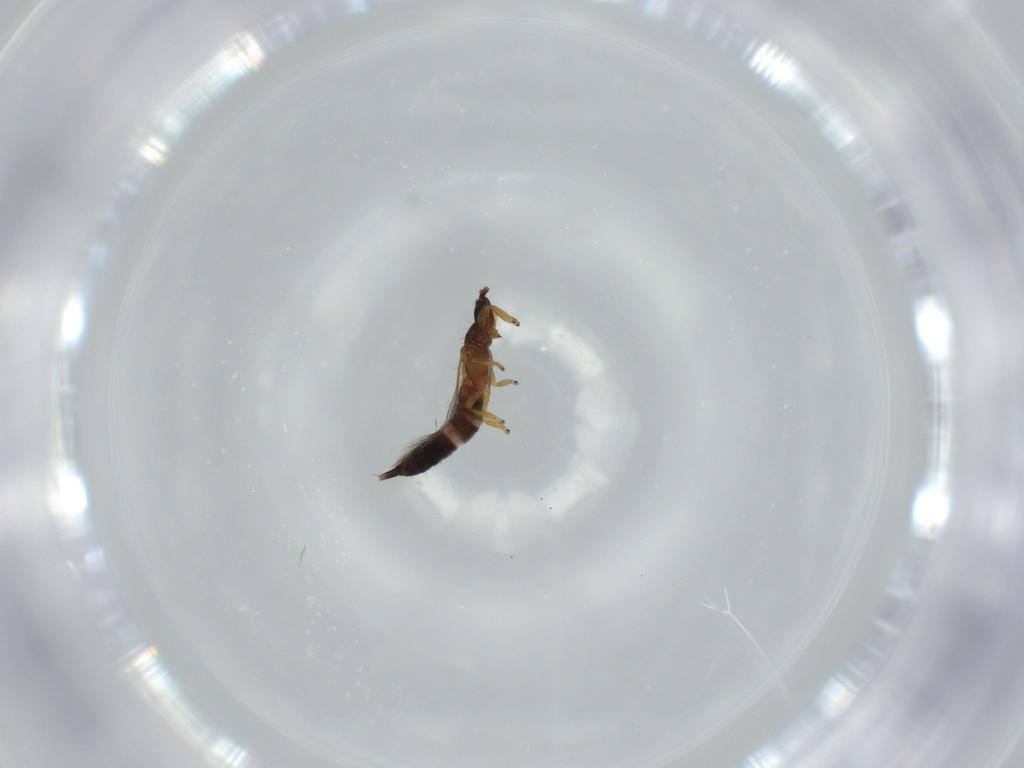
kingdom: Animalia
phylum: Arthropoda
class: Insecta
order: Thysanoptera
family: Phlaeothripidae
